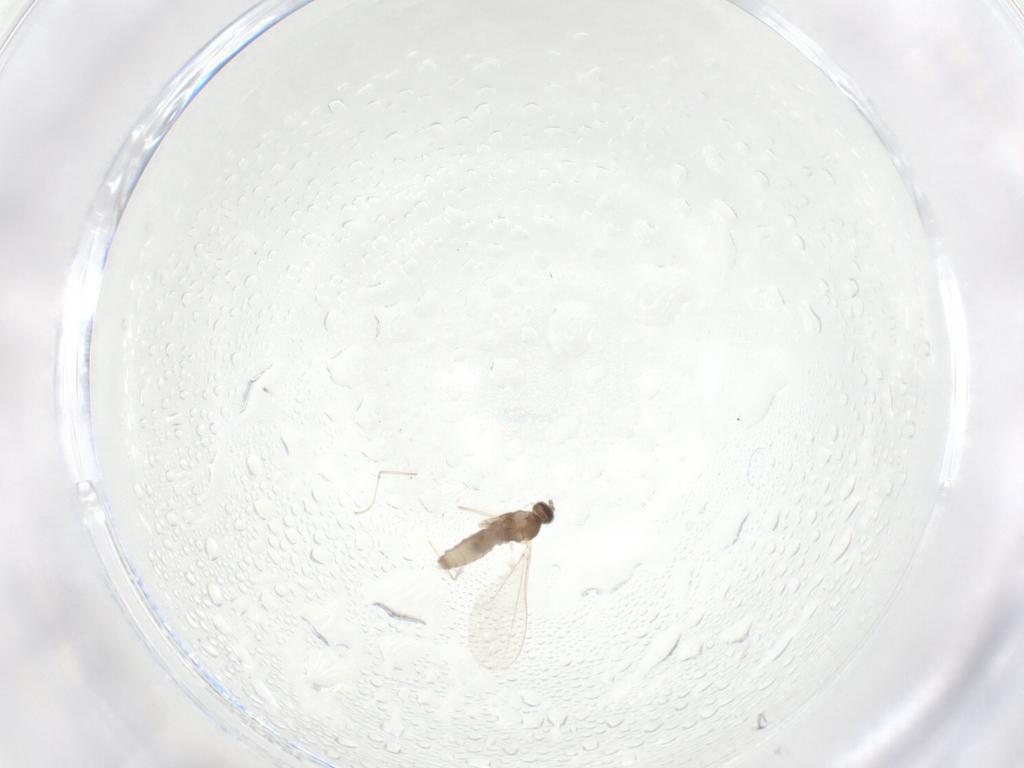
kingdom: Animalia
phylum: Arthropoda
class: Insecta
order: Diptera
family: Cecidomyiidae
